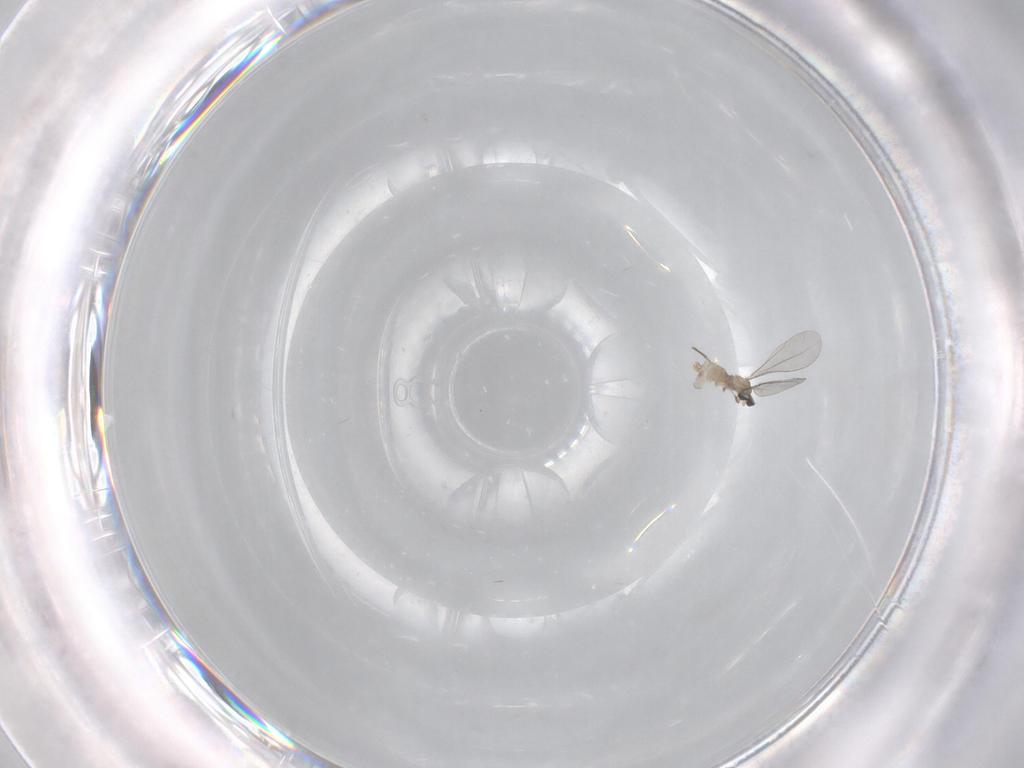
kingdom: Animalia
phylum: Arthropoda
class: Insecta
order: Diptera
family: Cecidomyiidae
